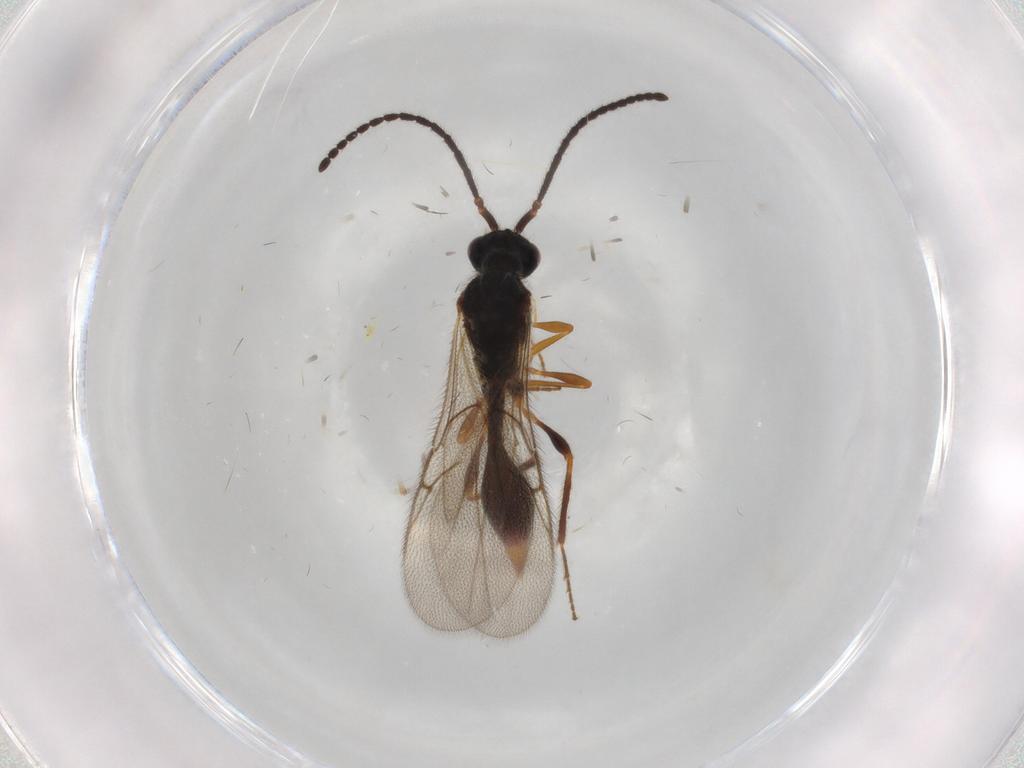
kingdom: Animalia
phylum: Arthropoda
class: Insecta
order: Hymenoptera
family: Diapriidae
